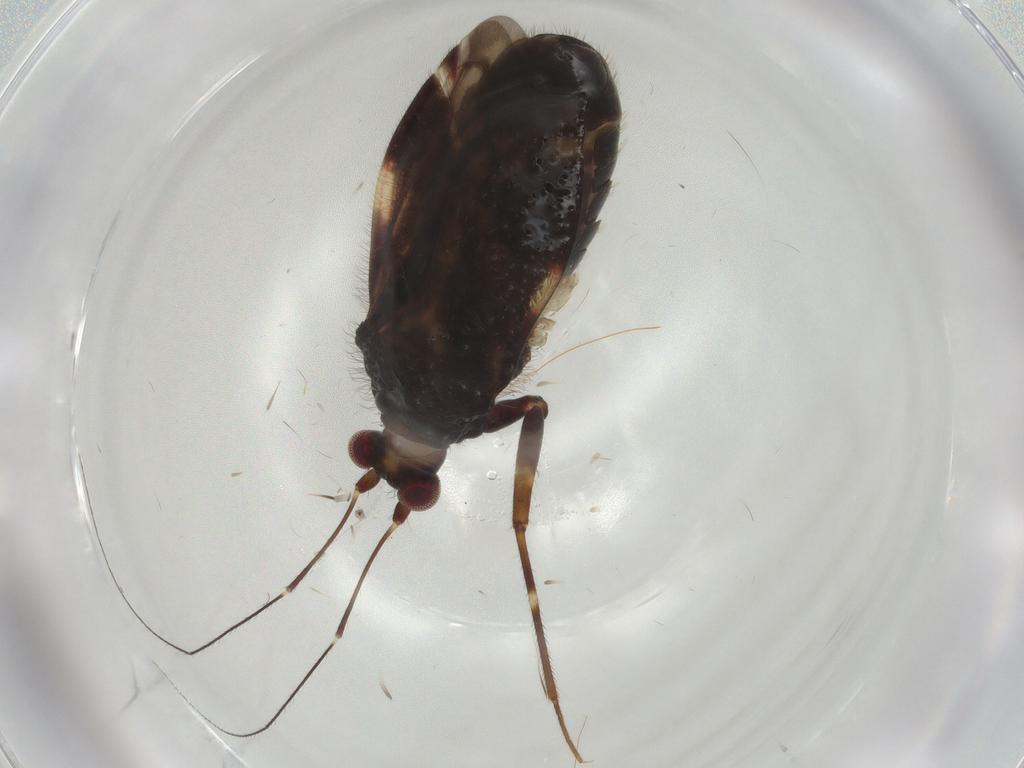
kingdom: Animalia
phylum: Arthropoda
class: Insecta
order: Hemiptera
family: Miridae
